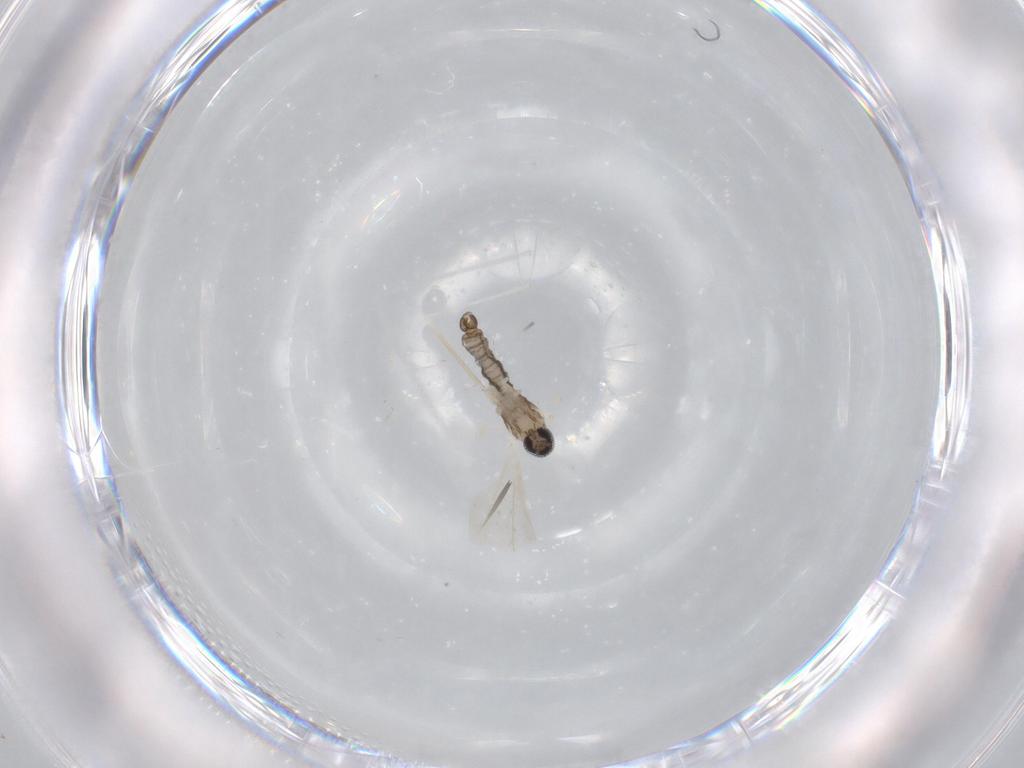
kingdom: Animalia
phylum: Arthropoda
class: Insecta
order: Diptera
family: Cecidomyiidae
